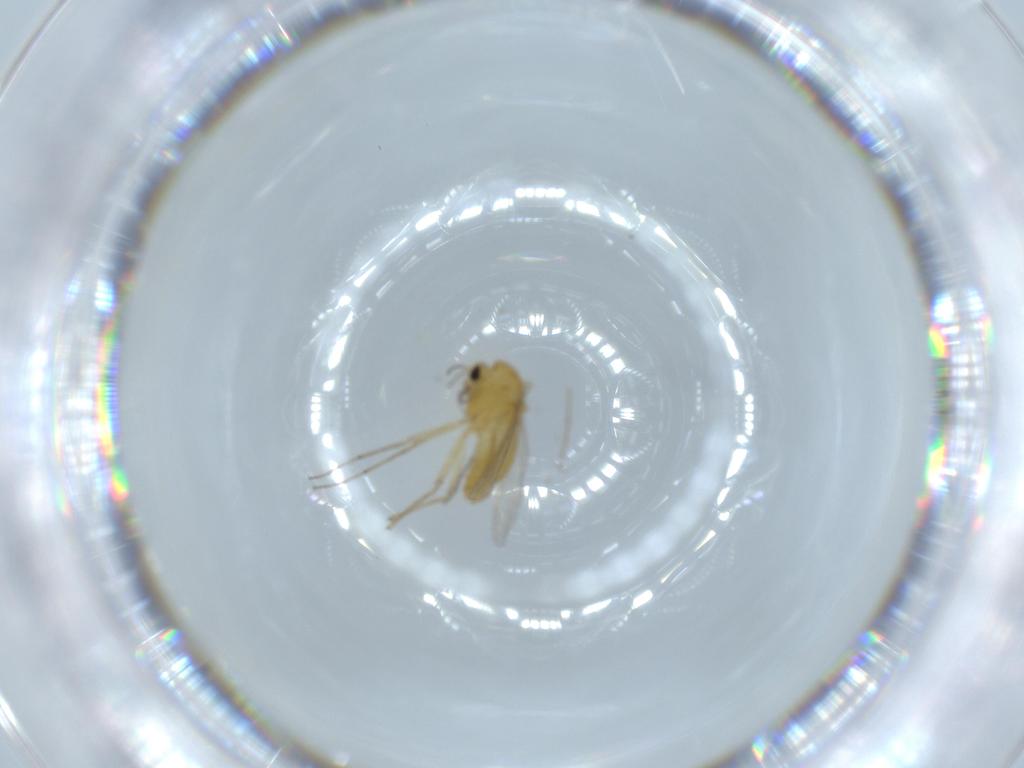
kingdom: Animalia
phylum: Arthropoda
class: Insecta
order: Diptera
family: Chironomidae
